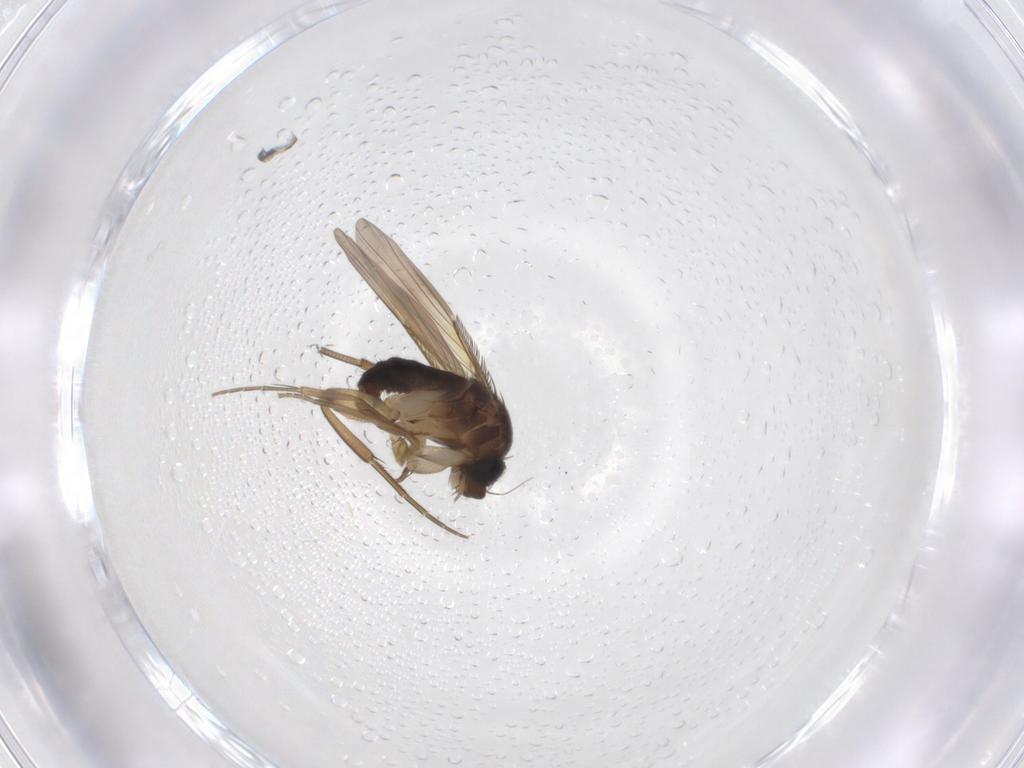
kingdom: Animalia
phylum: Arthropoda
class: Insecta
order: Diptera
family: Phoridae
